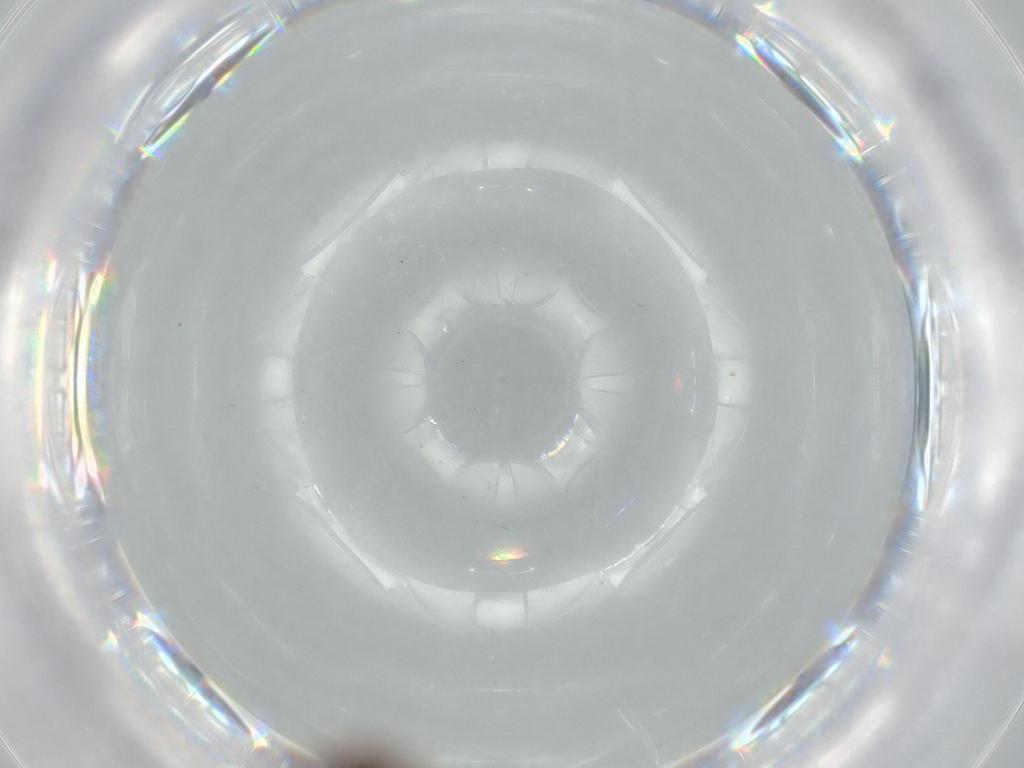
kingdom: Animalia
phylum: Arthropoda
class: Insecta
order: Hymenoptera
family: Platygastridae
